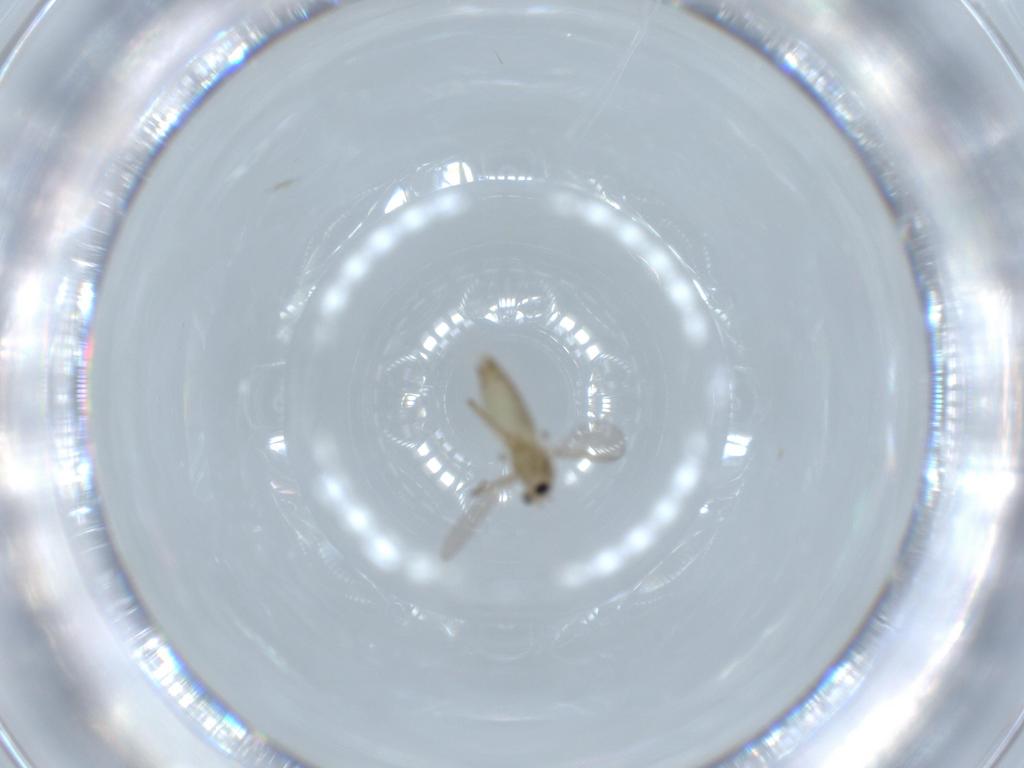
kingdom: Animalia
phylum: Arthropoda
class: Insecta
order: Diptera
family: Chironomidae
